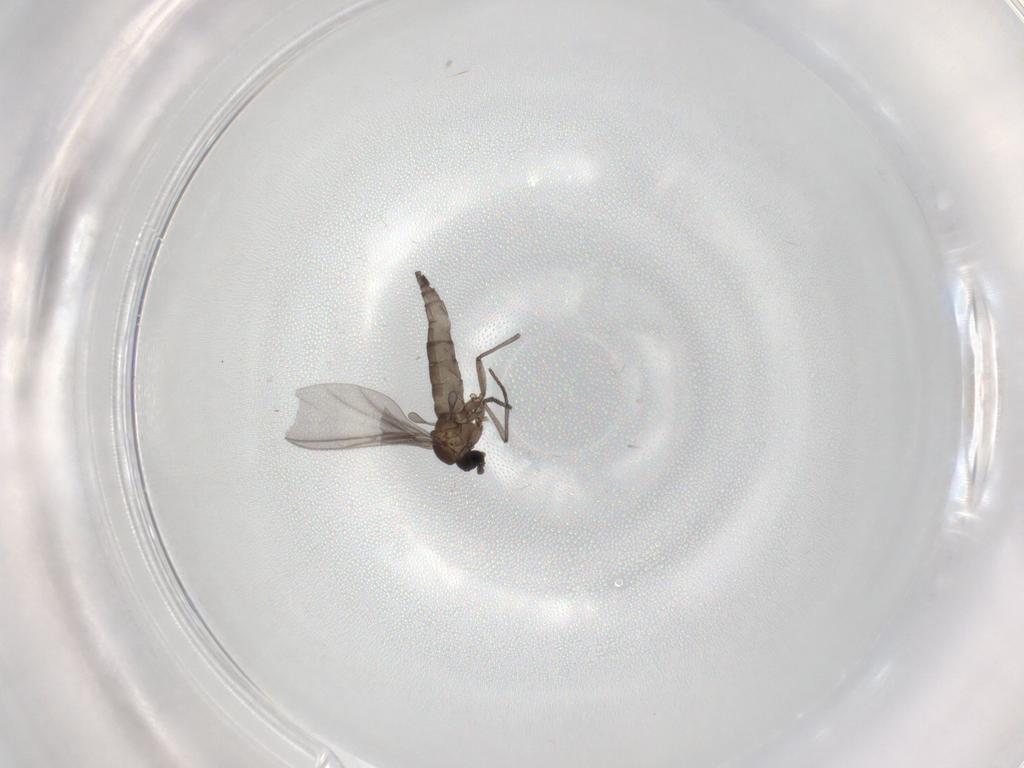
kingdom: Animalia
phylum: Arthropoda
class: Insecta
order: Diptera
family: Sciaridae
